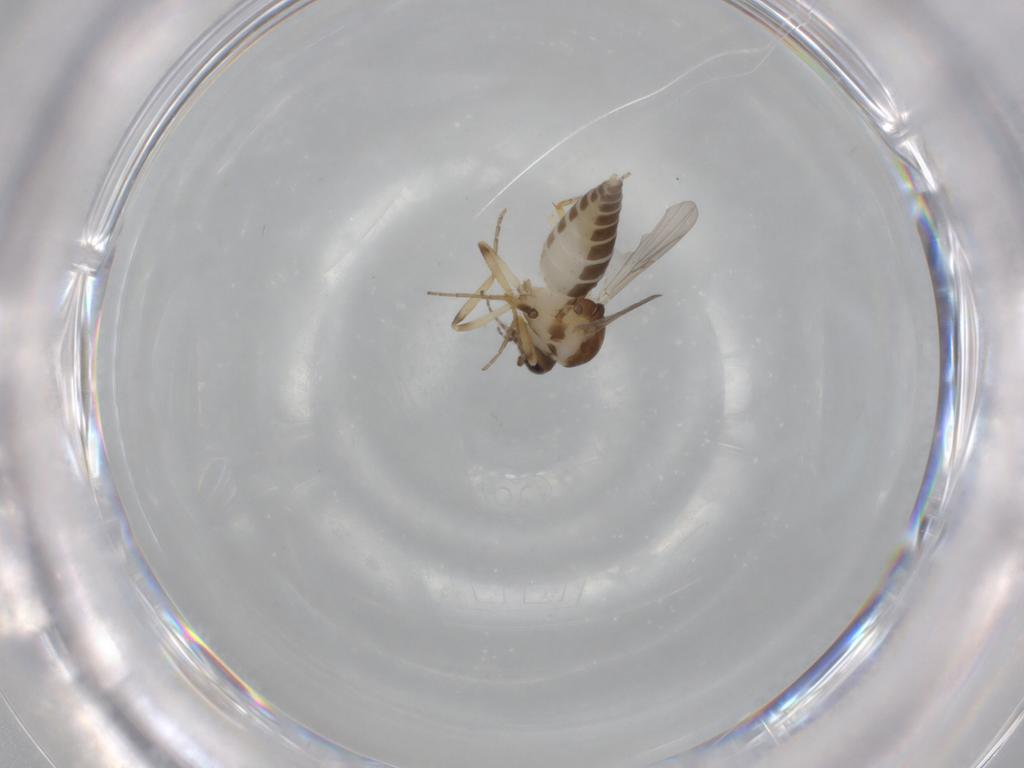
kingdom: Animalia
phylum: Arthropoda
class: Insecta
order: Diptera
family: Ceratopogonidae
